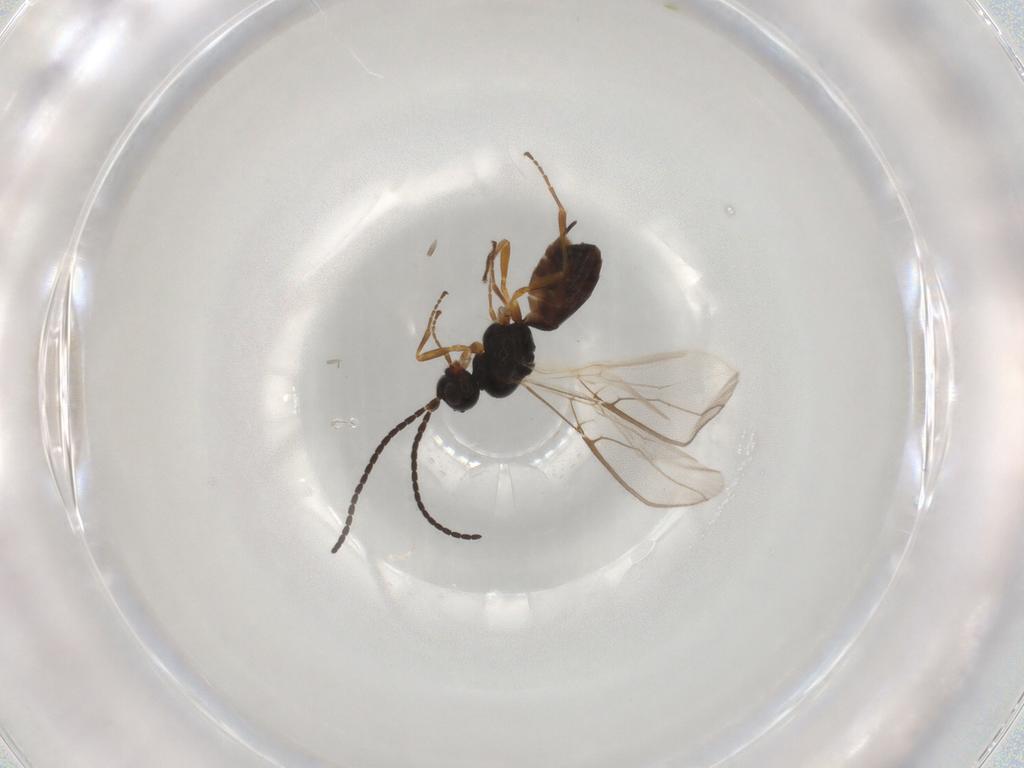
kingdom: Animalia
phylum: Arthropoda
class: Insecta
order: Hymenoptera
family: Braconidae
